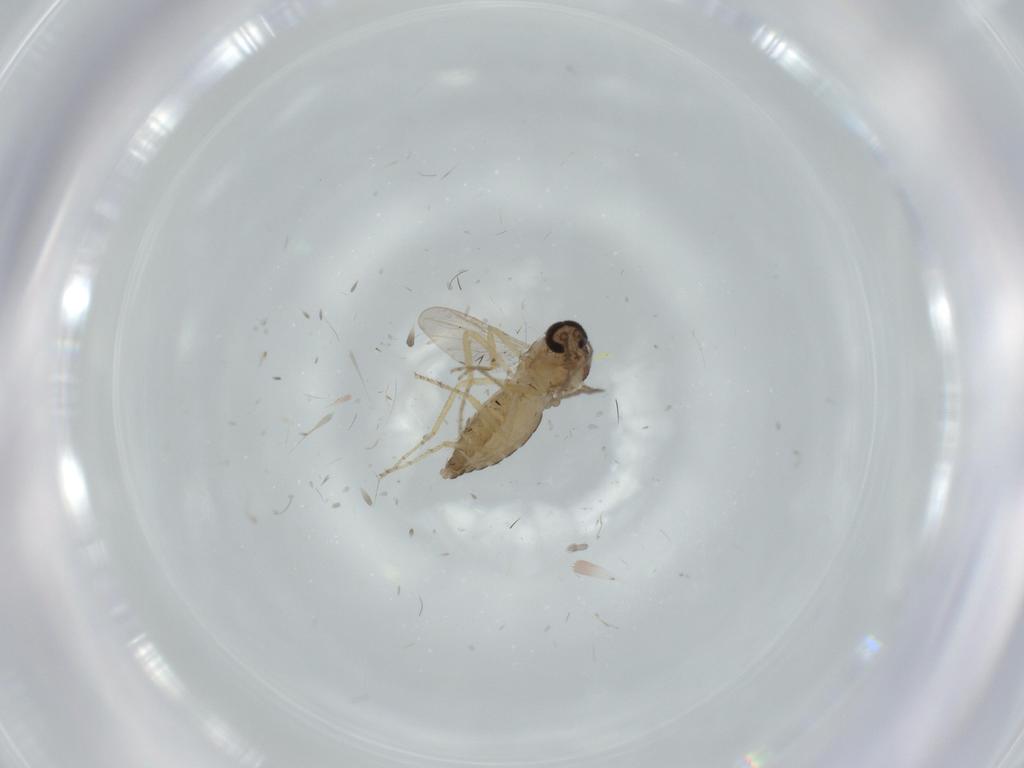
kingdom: Animalia
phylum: Arthropoda
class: Insecta
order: Diptera
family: Ceratopogonidae
